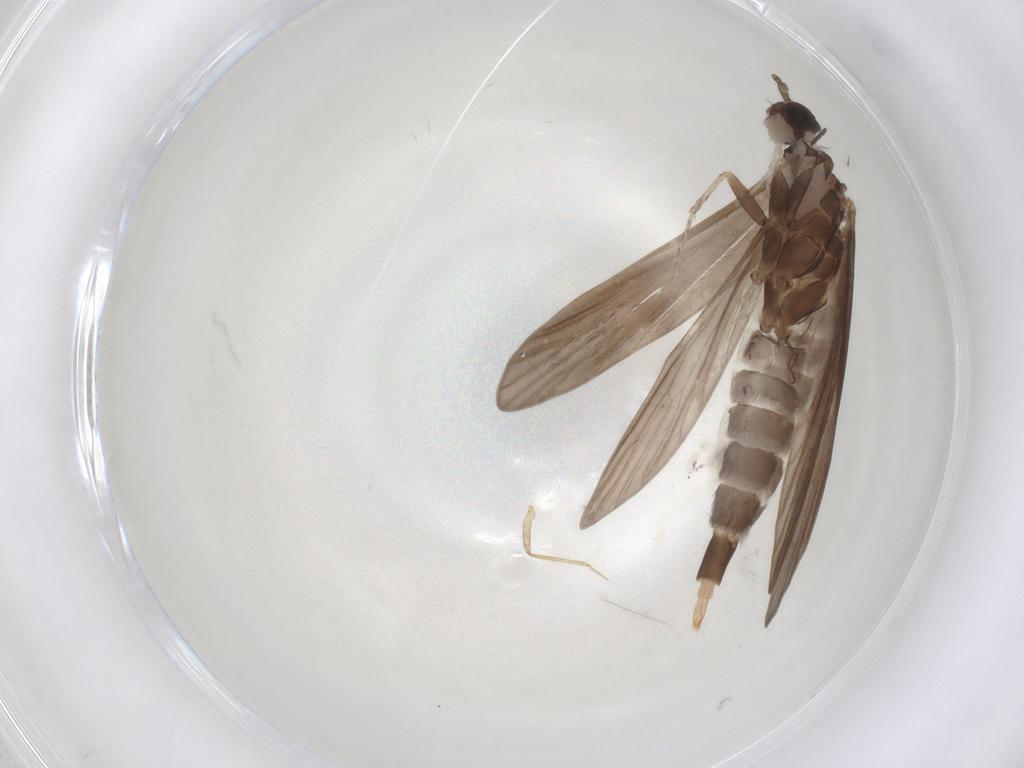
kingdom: Animalia
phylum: Arthropoda
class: Insecta
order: Trichoptera
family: Xiphocentronidae
